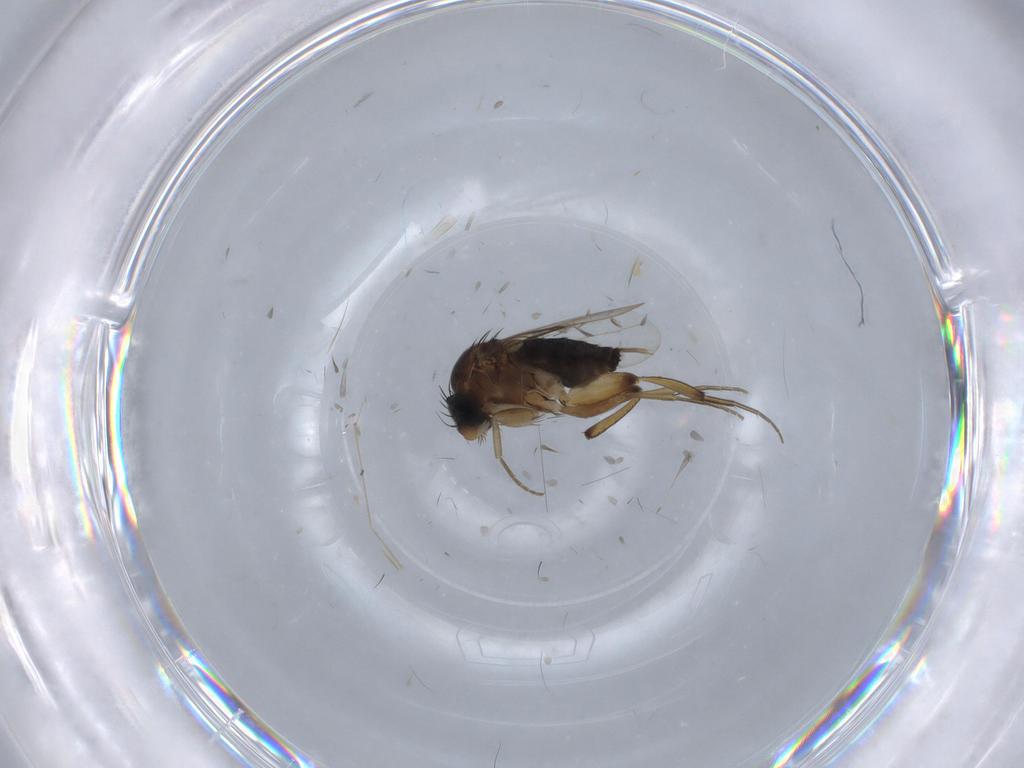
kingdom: Animalia
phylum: Arthropoda
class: Insecta
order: Diptera
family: Phoridae
